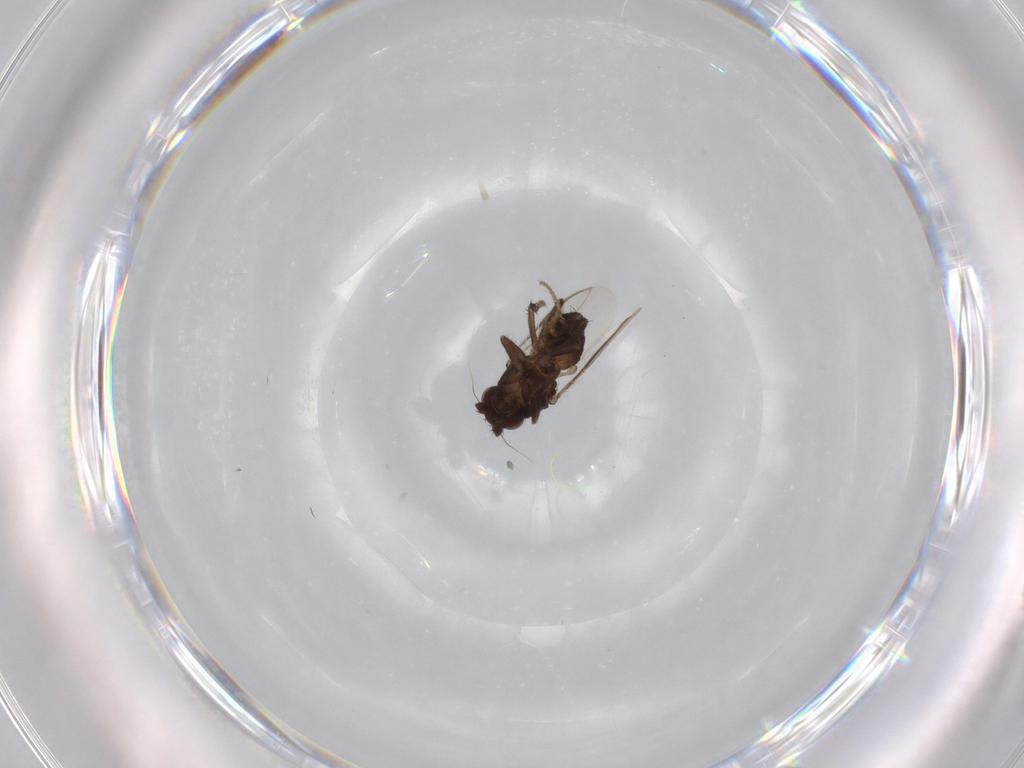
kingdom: Animalia
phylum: Arthropoda
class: Insecta
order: Diptera
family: Sphaeroceridae
